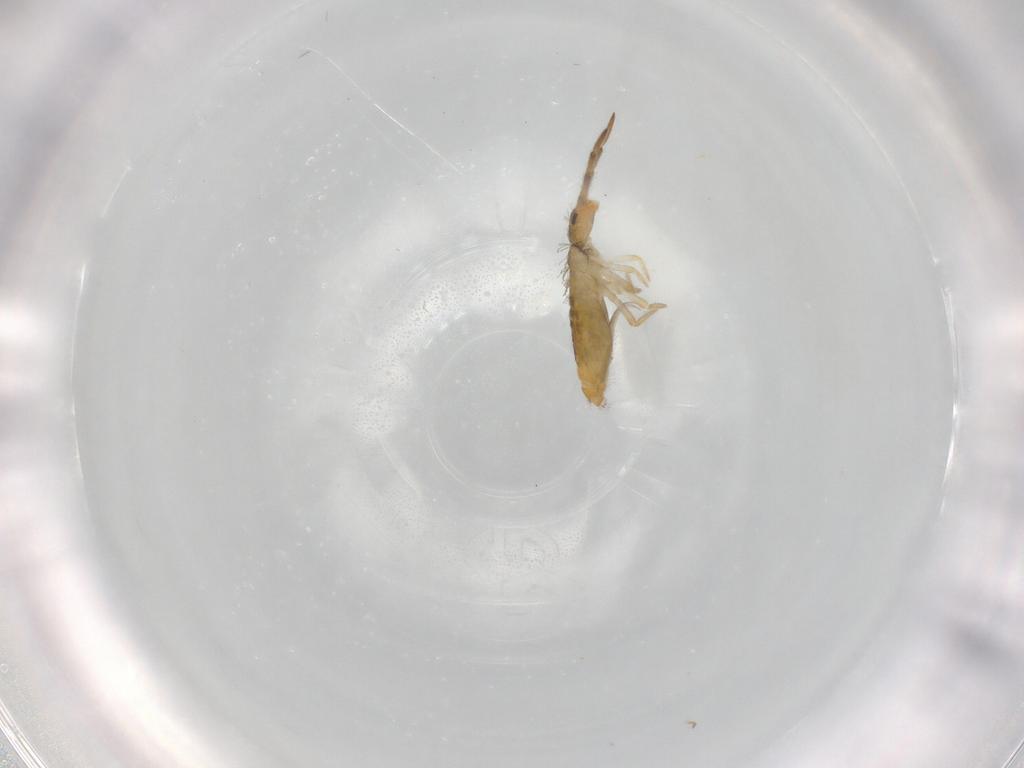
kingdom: Animalia
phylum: Arthropoda
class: Collembola
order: Entomobryomorpha
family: Entomobryidae
